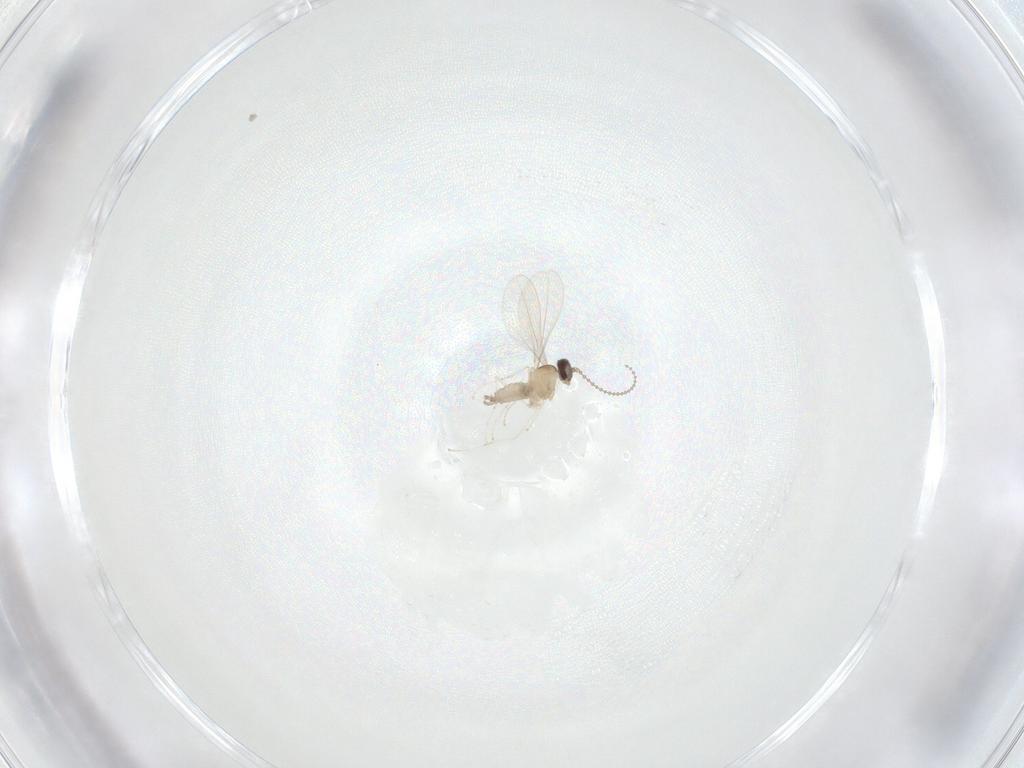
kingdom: Animalia
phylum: Arthropoda
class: Insecta
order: Diptera
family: Cecidomyiidae
